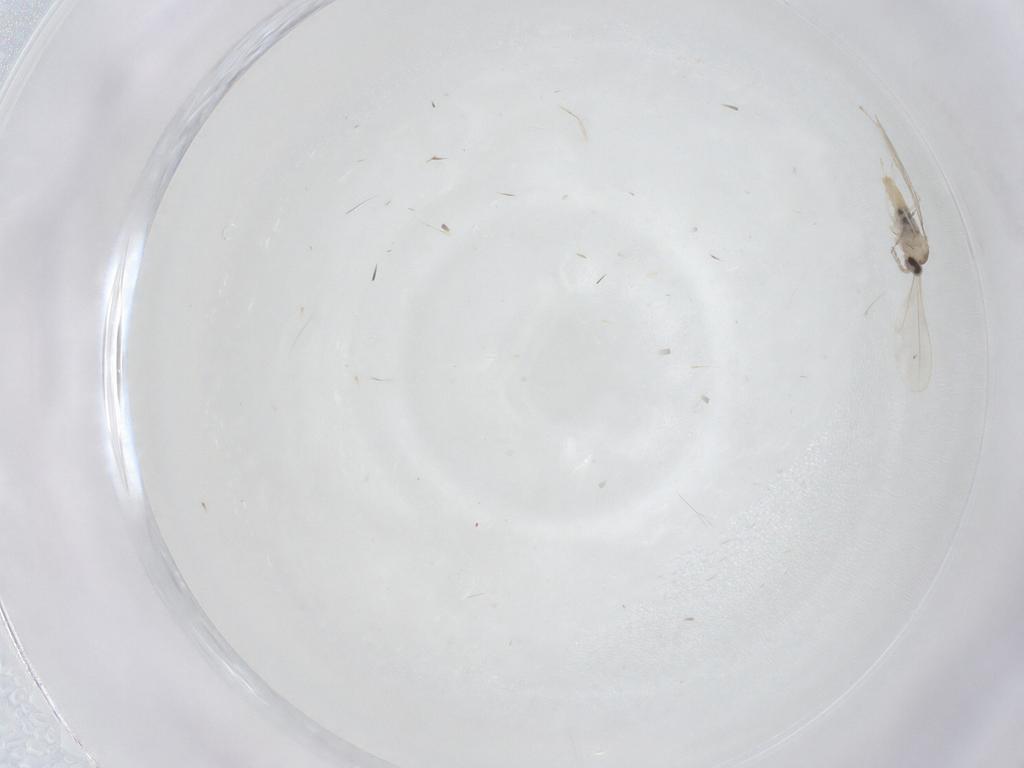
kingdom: Animalia
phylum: Arthropoda
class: Insecta
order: Diptera
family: Psychodidae
